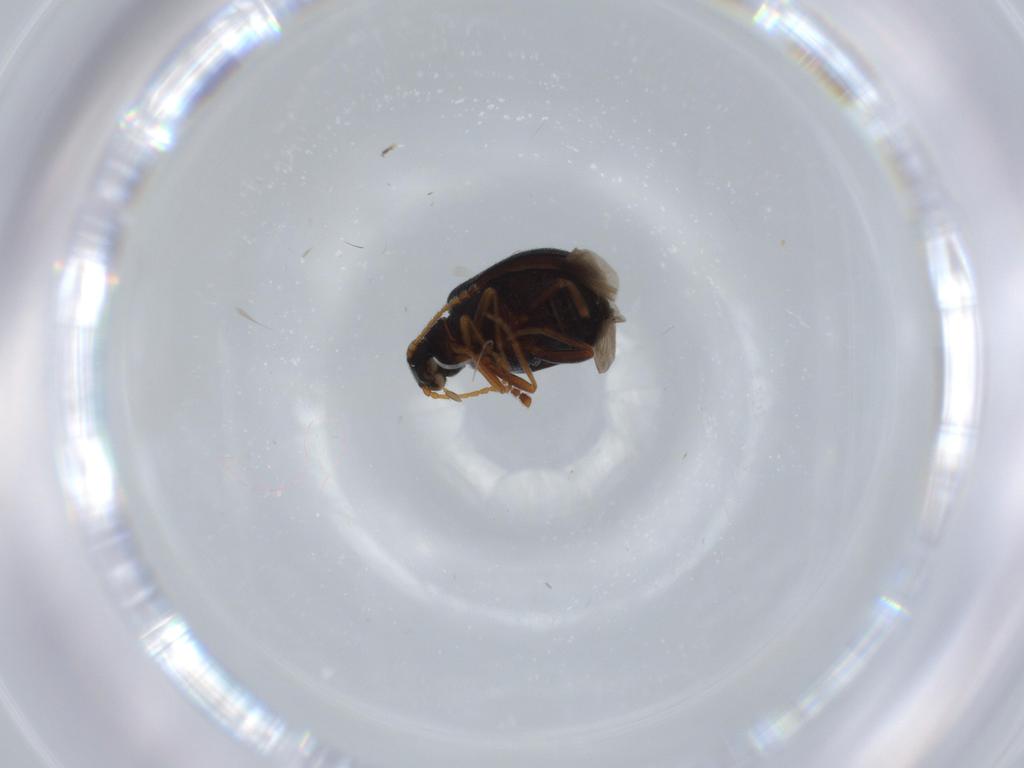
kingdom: Animalia
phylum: Arthropoda
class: Insecta
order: Coleoptera
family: Aderidae
